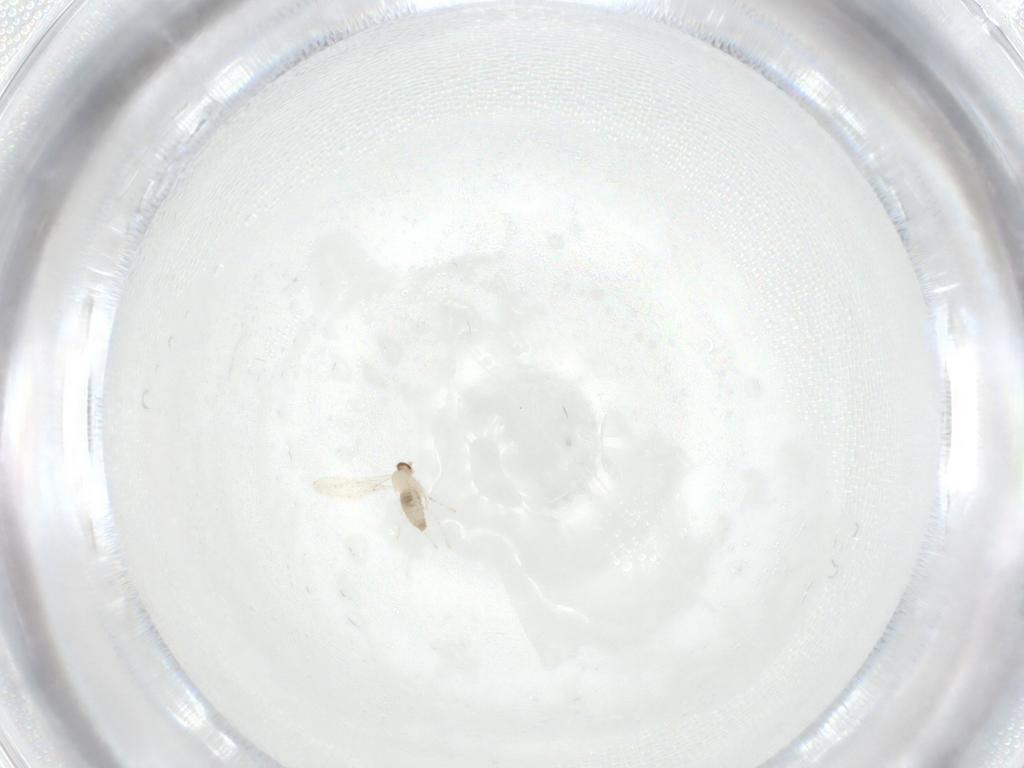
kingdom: Animalia
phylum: Arthropoda
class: Insecta
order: Diptera
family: Cecidomyiidae
